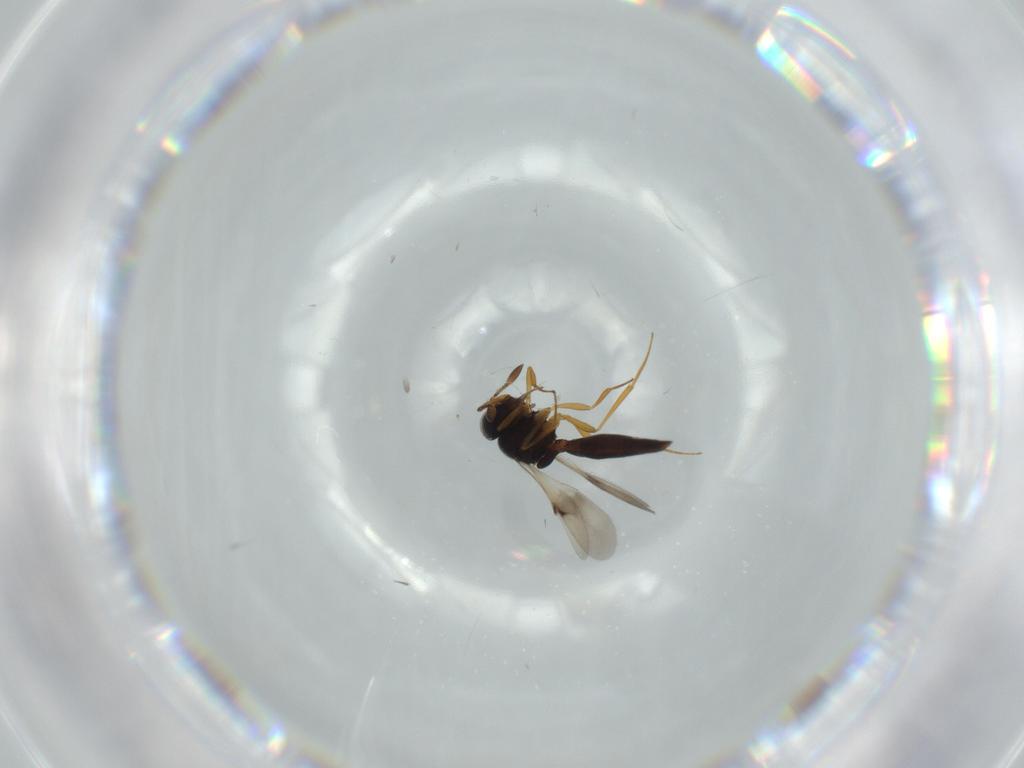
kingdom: Animalia
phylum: Arthropoda
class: Insecta
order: Hymenoptera
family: Scelionidae
